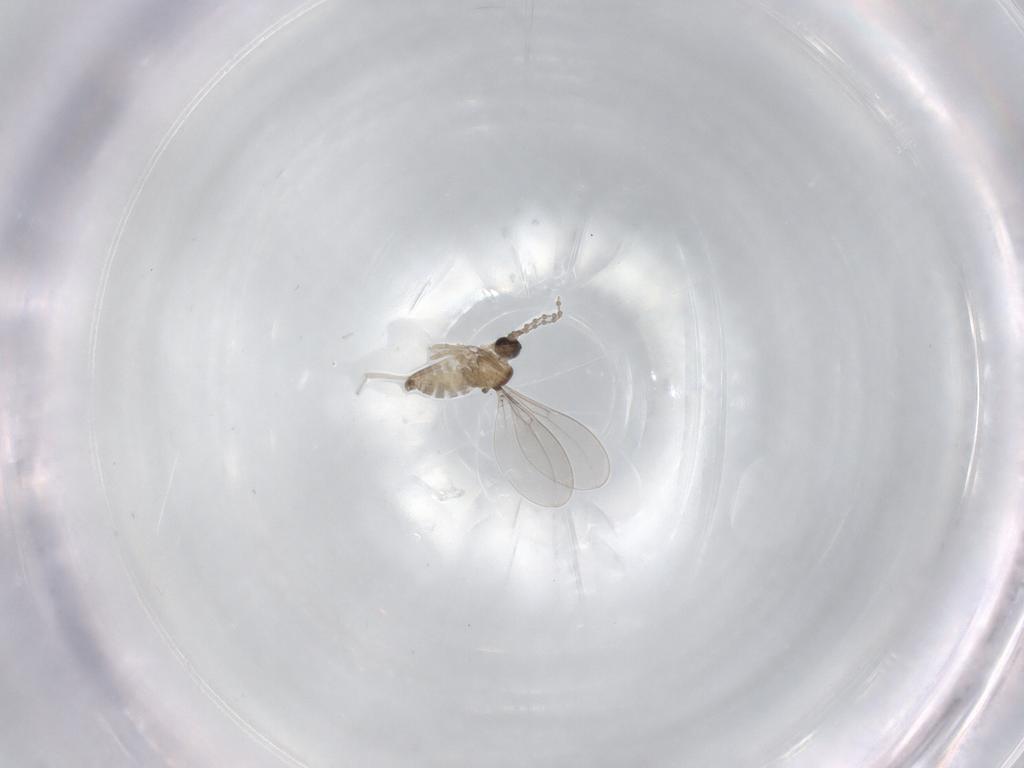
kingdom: Animalia
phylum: Arthropoda
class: Insecta
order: Diptera
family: Cecidomyiidae
